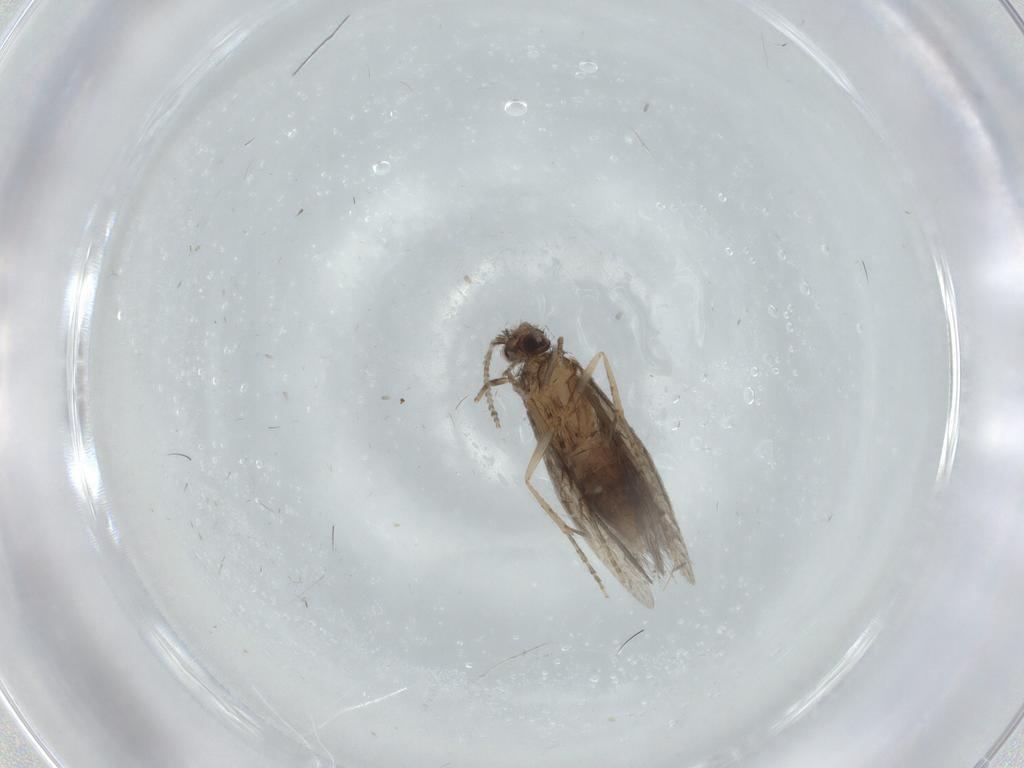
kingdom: Animalia
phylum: Arthropoda
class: Insecta
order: Trichoptera
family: Hydroptilidae
